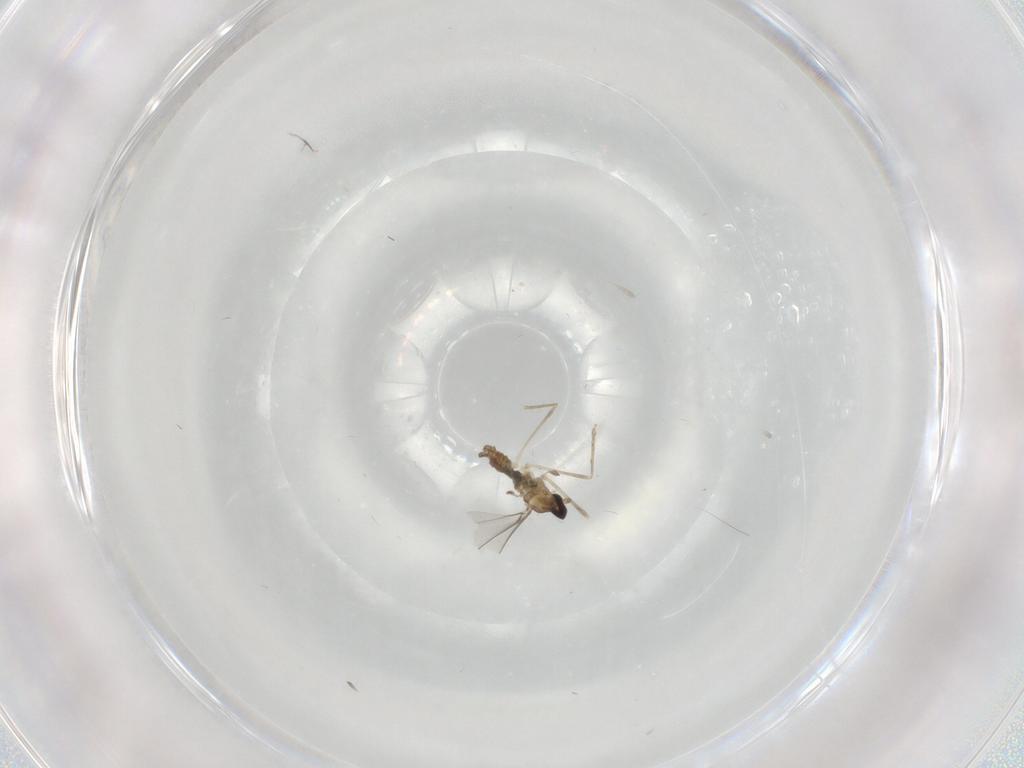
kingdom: Animalia
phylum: Arthropoda
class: Insecta
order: Diptera
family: Cecidomyiidae
